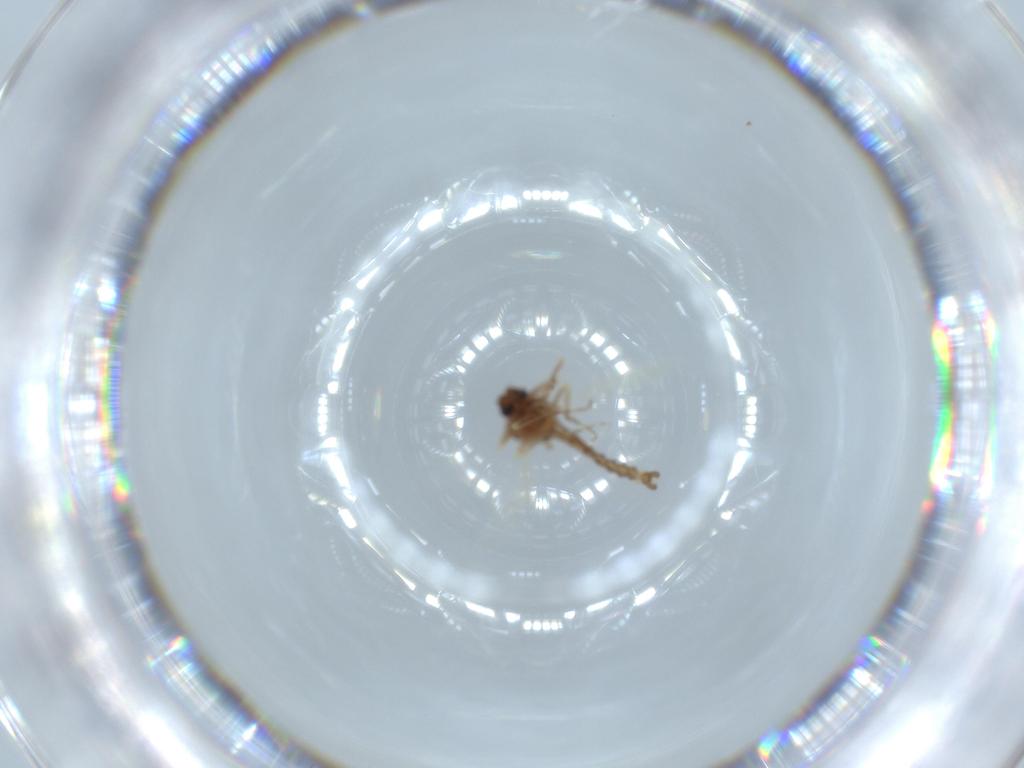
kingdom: Animalia
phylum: Arthropoda
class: Insecta
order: Diptera
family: Ceratopogonidae
